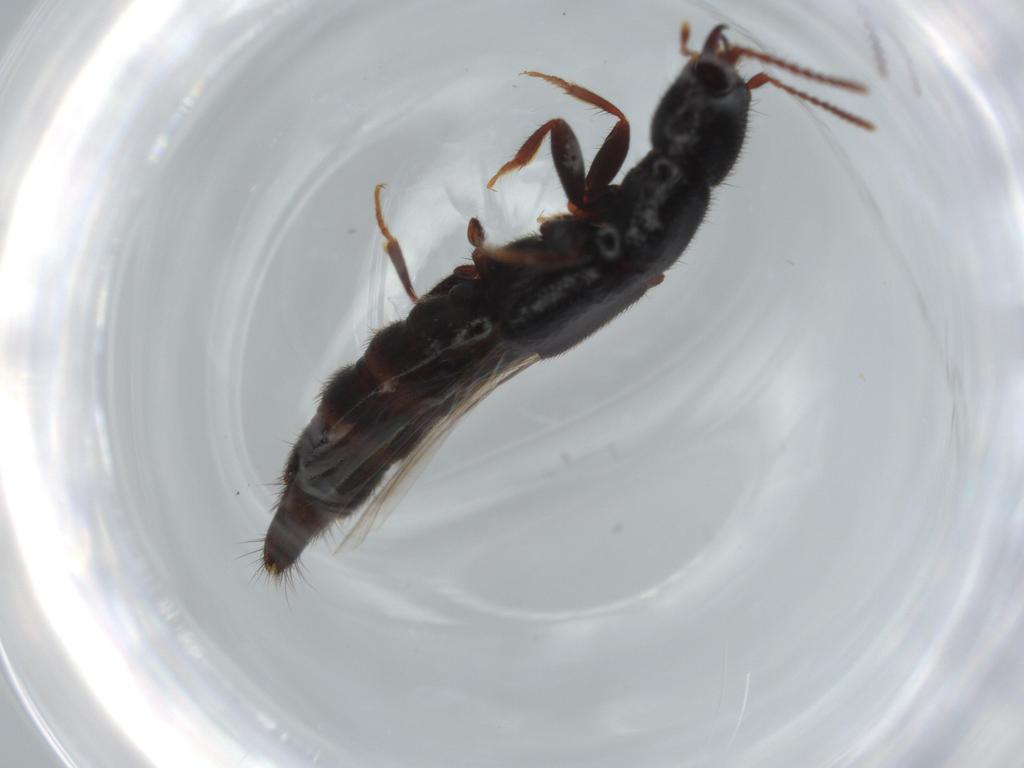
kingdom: Animalia
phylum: Arthropoda
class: Insecta
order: Coleoptera
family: Staphylinidae
